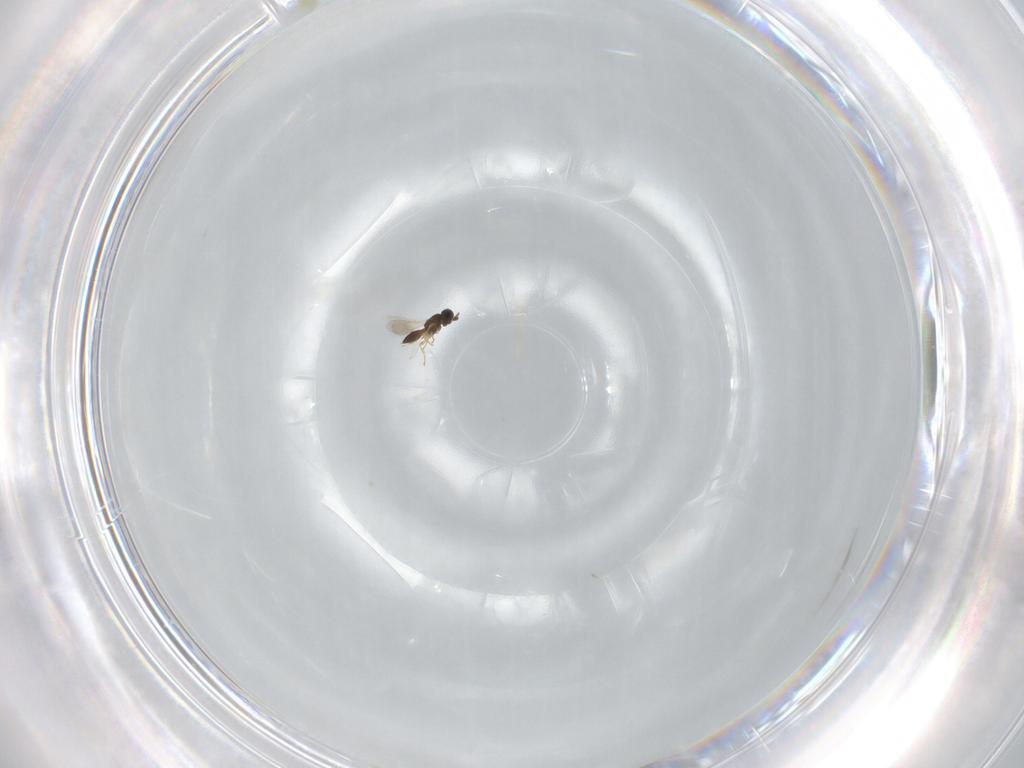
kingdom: Animalia
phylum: Arthropoda
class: Insecta
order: Hymenoptera
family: Scelionidae
